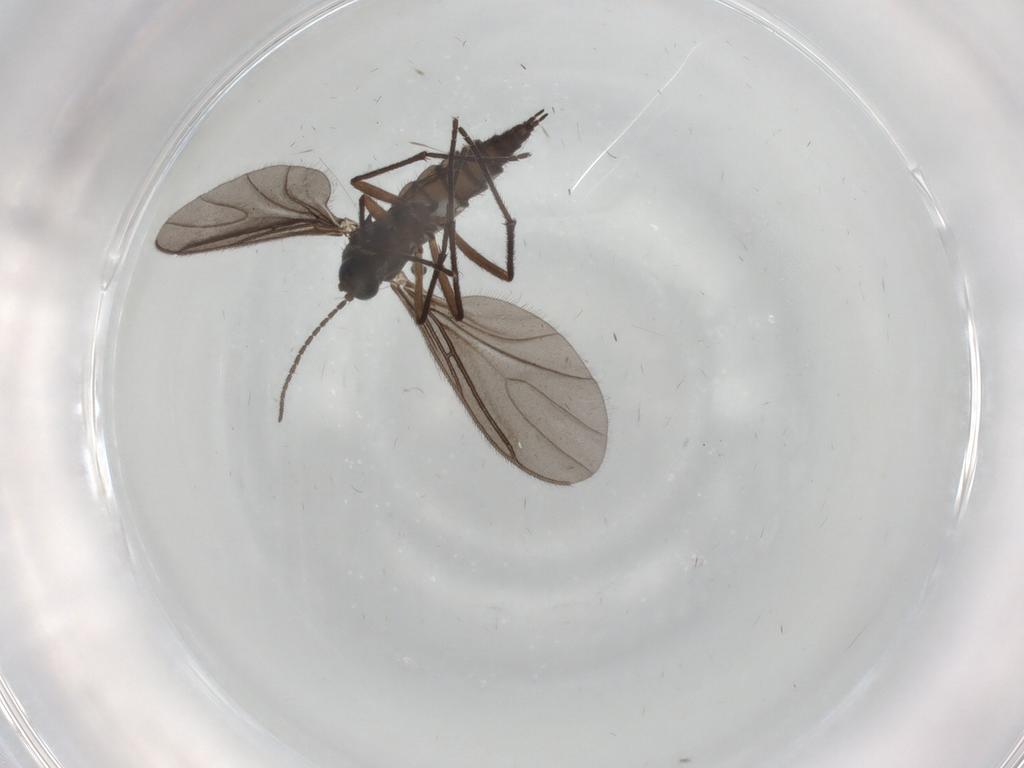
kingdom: Animalia
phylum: Arthropoda
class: Insecta
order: Diptera
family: Sciaridae
